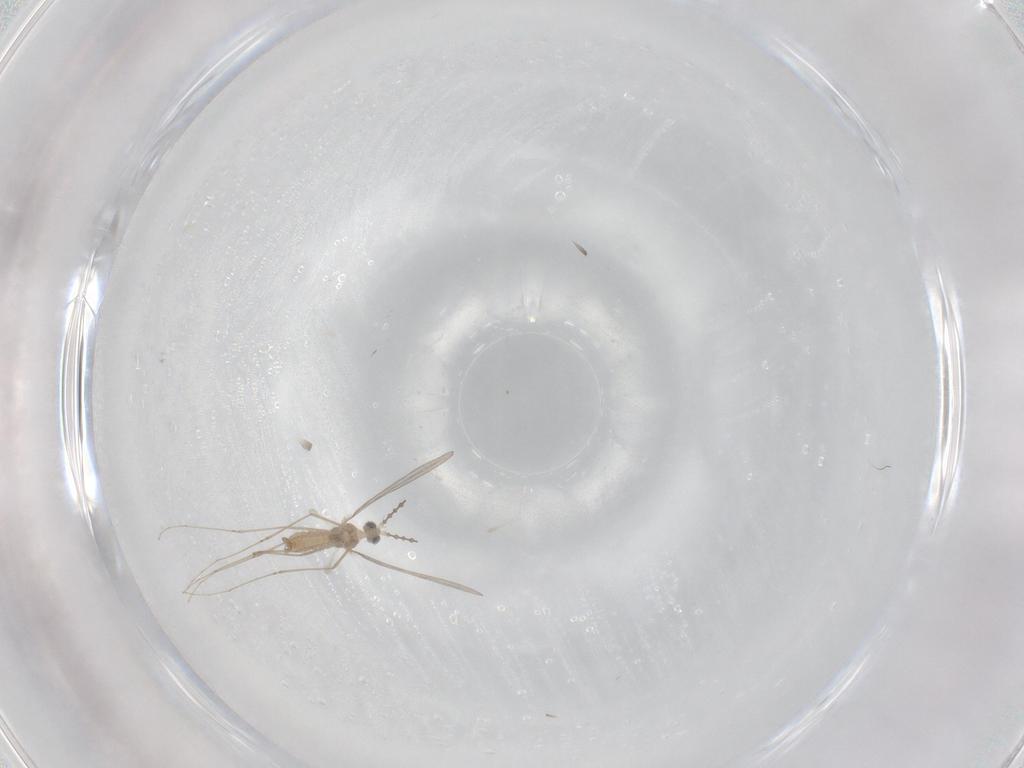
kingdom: Animalia
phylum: Arthropoda
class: Insecta
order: Diptera
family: Cecidomyiidae
